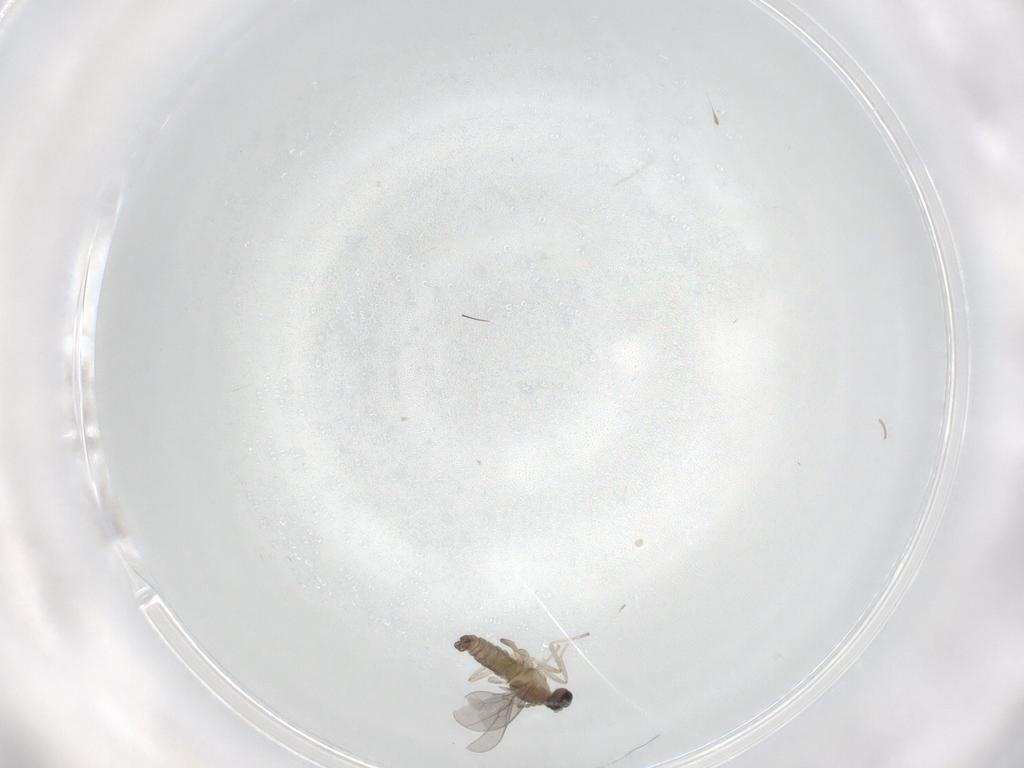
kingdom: Animalia
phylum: Arthropoda
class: Insecta
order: Diptera
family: Cecidomyiidae
